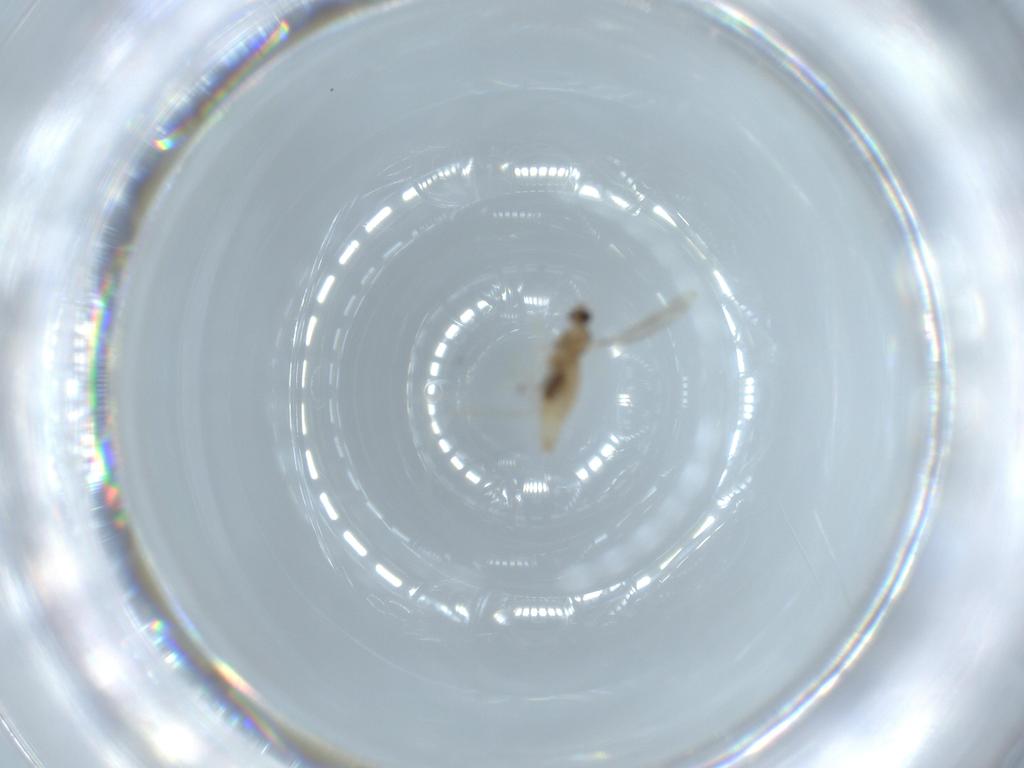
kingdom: Animalia
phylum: Arthropoda
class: Insecta
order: Diptera
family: Cecidomyiidae
